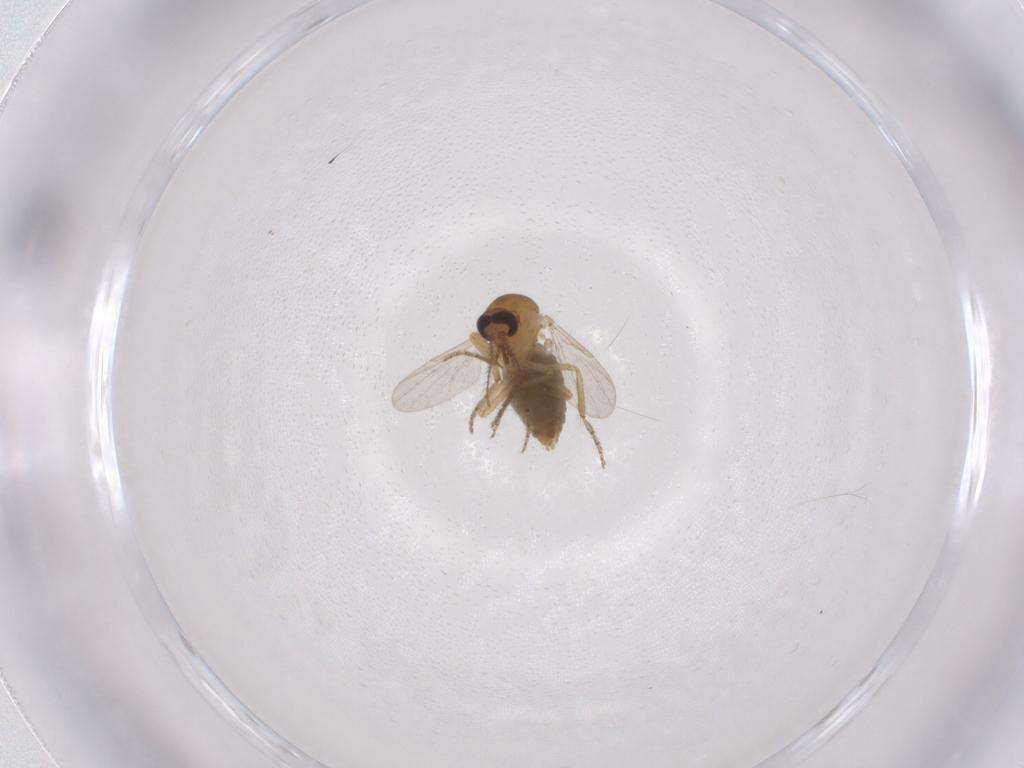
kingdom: Animalia
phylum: Arthropoda
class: Insecta
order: Diptera
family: Ceratopogonidae
